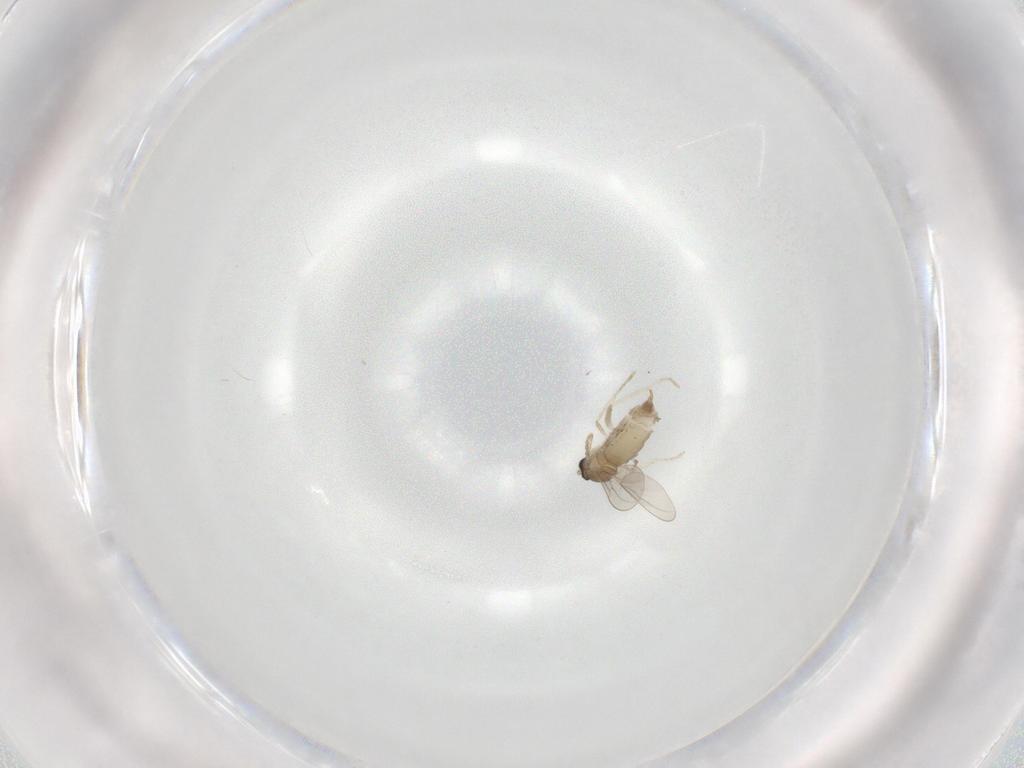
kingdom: Animalia
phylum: Arthropoda
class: Insecta
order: Diptera
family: Cecidomyiidae
